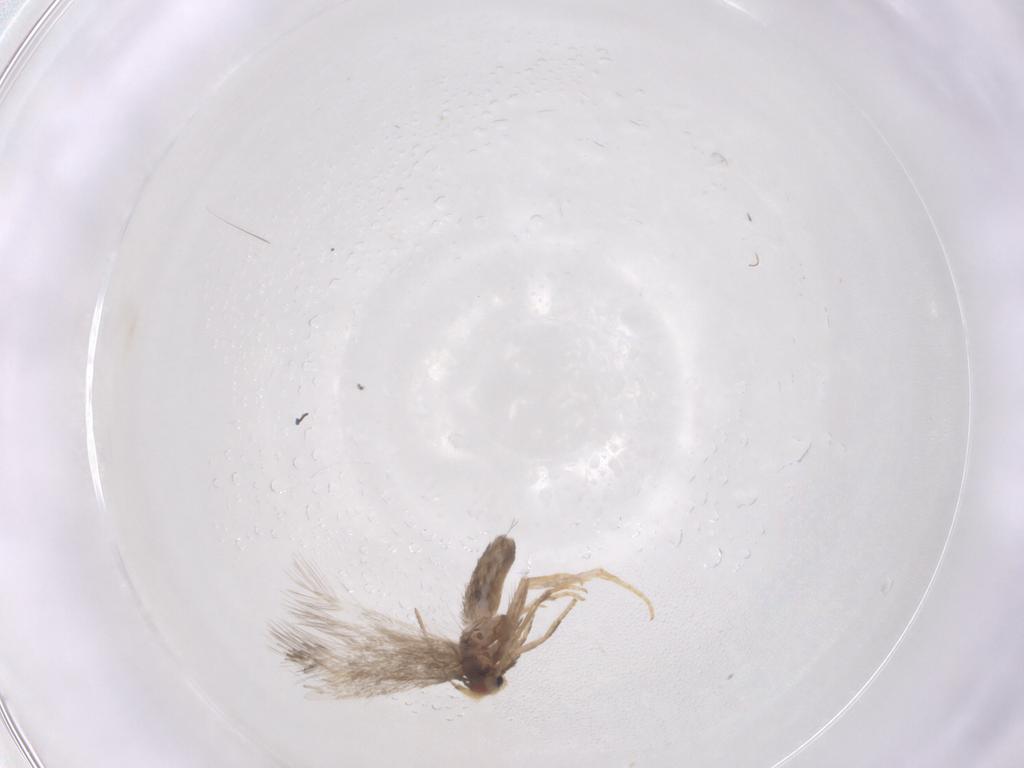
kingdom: Animalia
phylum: Arthropoda
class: Insecta
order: Lepidoptera
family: Nepticulidae
